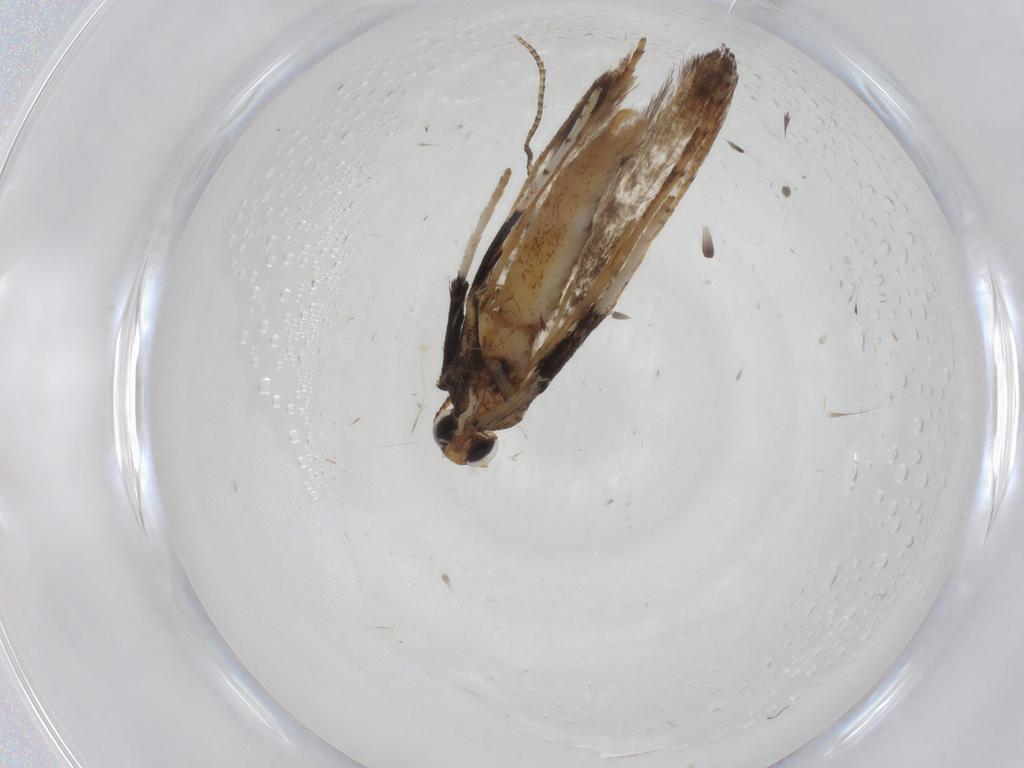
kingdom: Animalia
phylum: Arthropoda
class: Insecta
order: Lepidoptera
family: Gracillariidae
